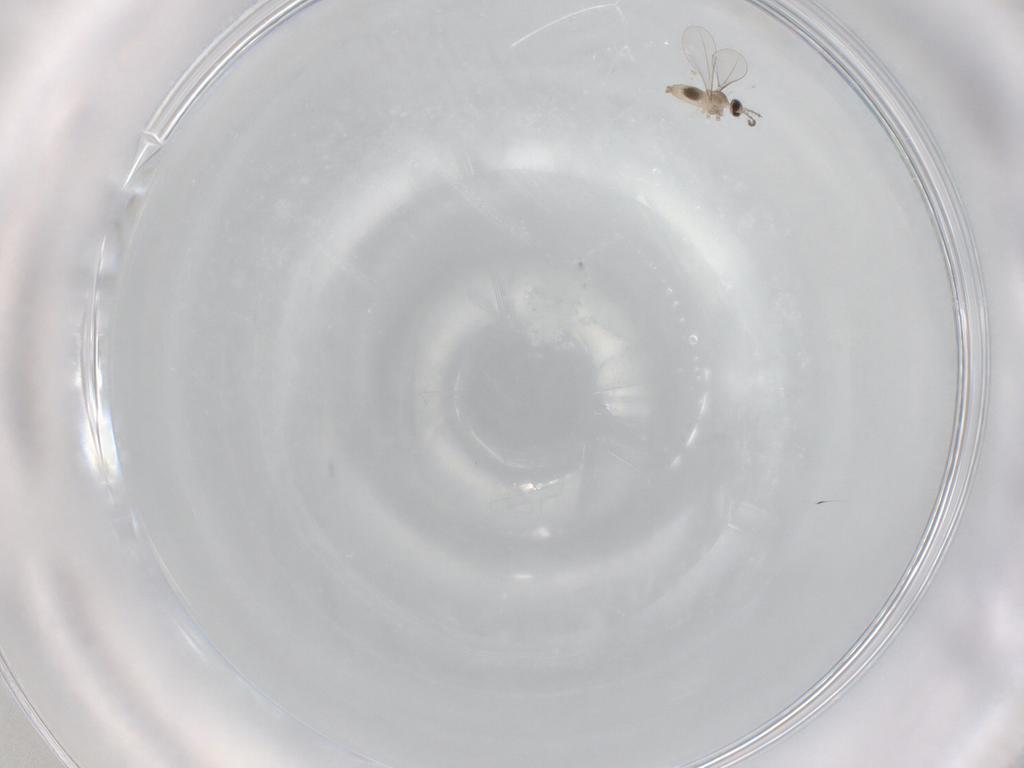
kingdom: Animalia
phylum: Arthropoda
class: Insecta
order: Diptera
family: Cecidomyiidae
